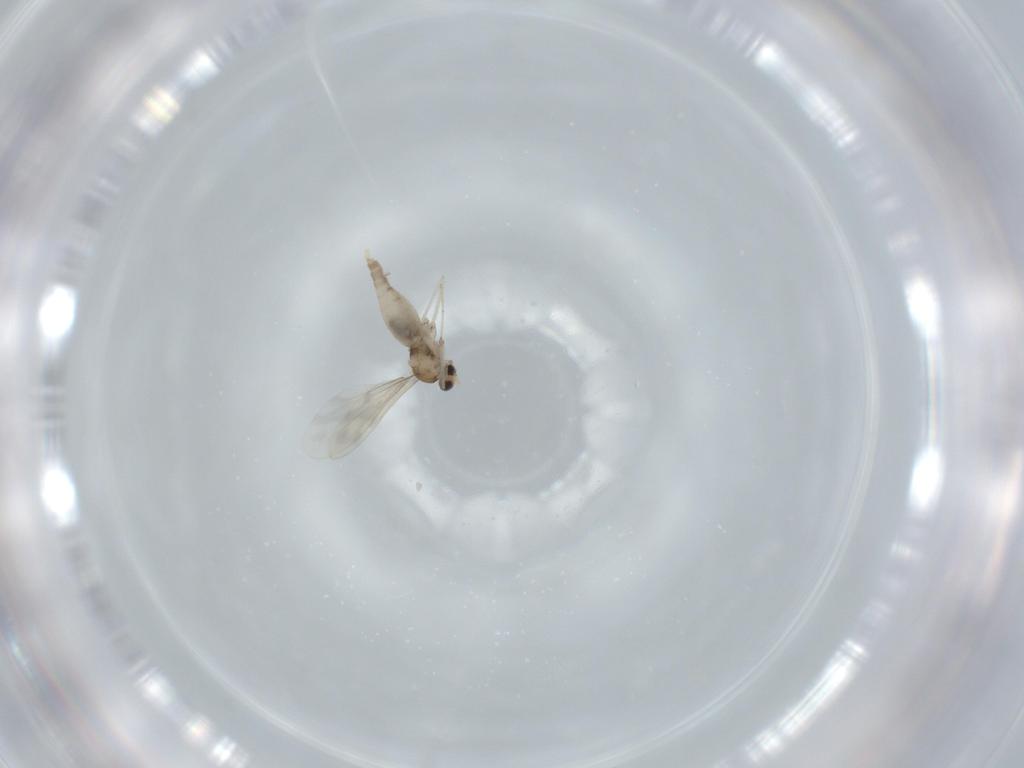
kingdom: Animalia
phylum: Arthropoda
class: Insecta
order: Diptera
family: Cecidomyiidae
